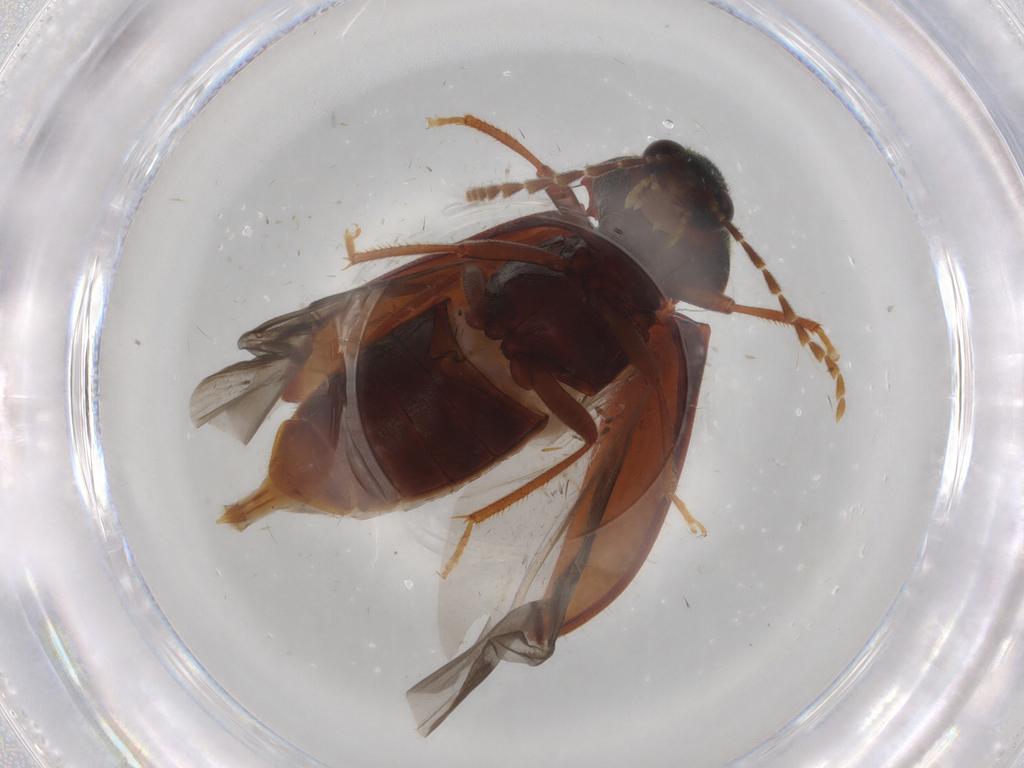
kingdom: Animalia
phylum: Arthropoda
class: Insecta
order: Coleoptera
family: Ptilodactylidae
